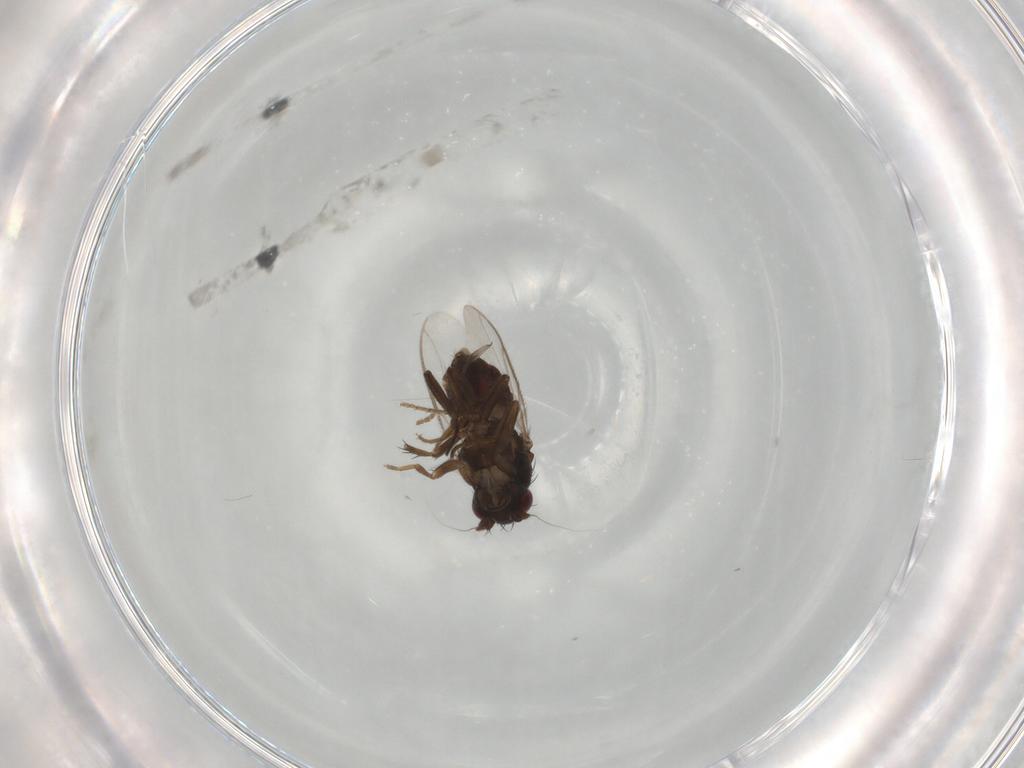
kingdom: Animalia
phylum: Arthropoda
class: Insecta
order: Diptera
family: Sphaeroceridae
